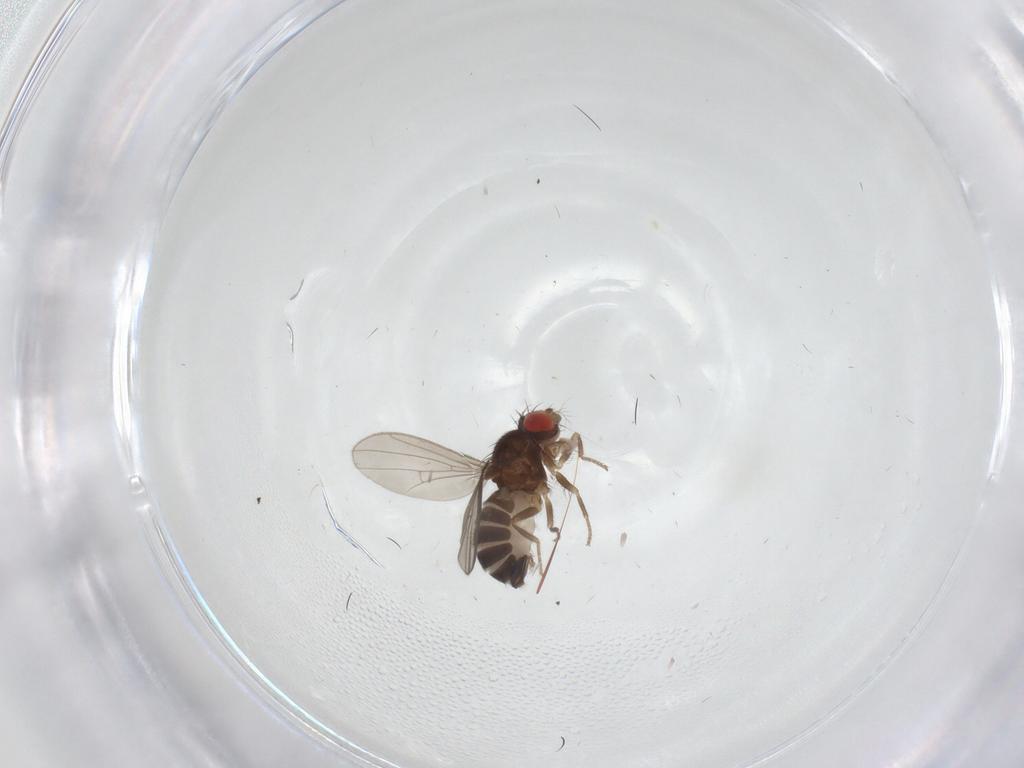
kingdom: Animalia
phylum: Arthropoda
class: Insecta
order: Diptera
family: Drosophilidae
